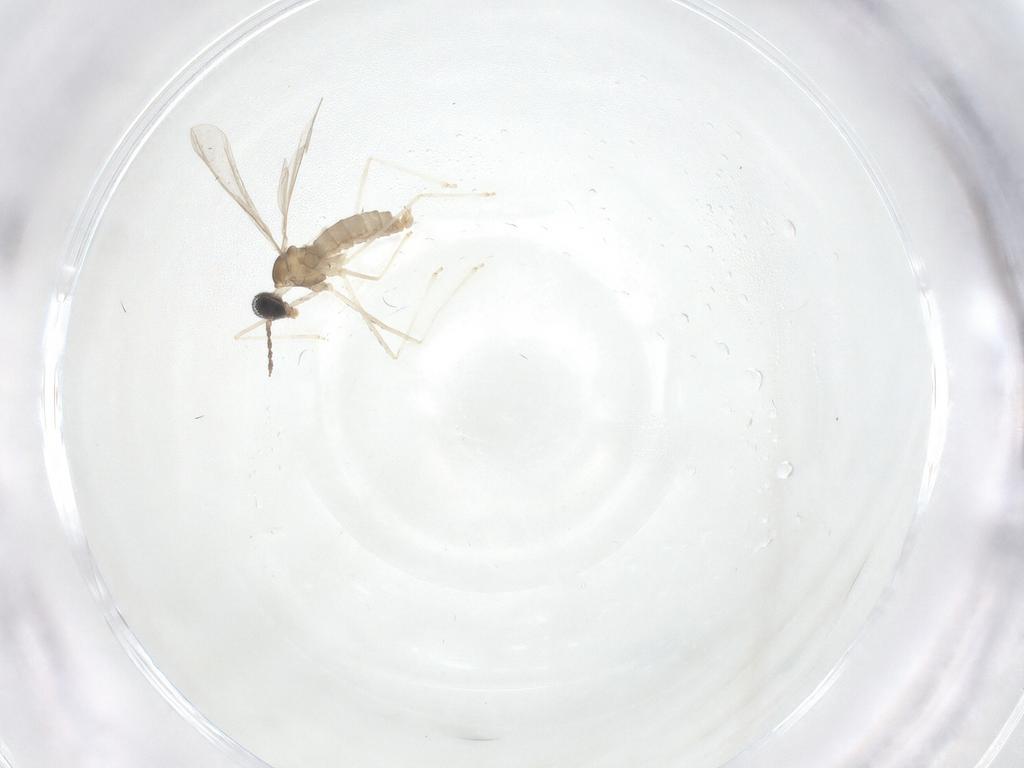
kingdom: Animalia
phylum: Arthropoda
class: Insecta
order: Diptera
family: Cecidomyiidae
